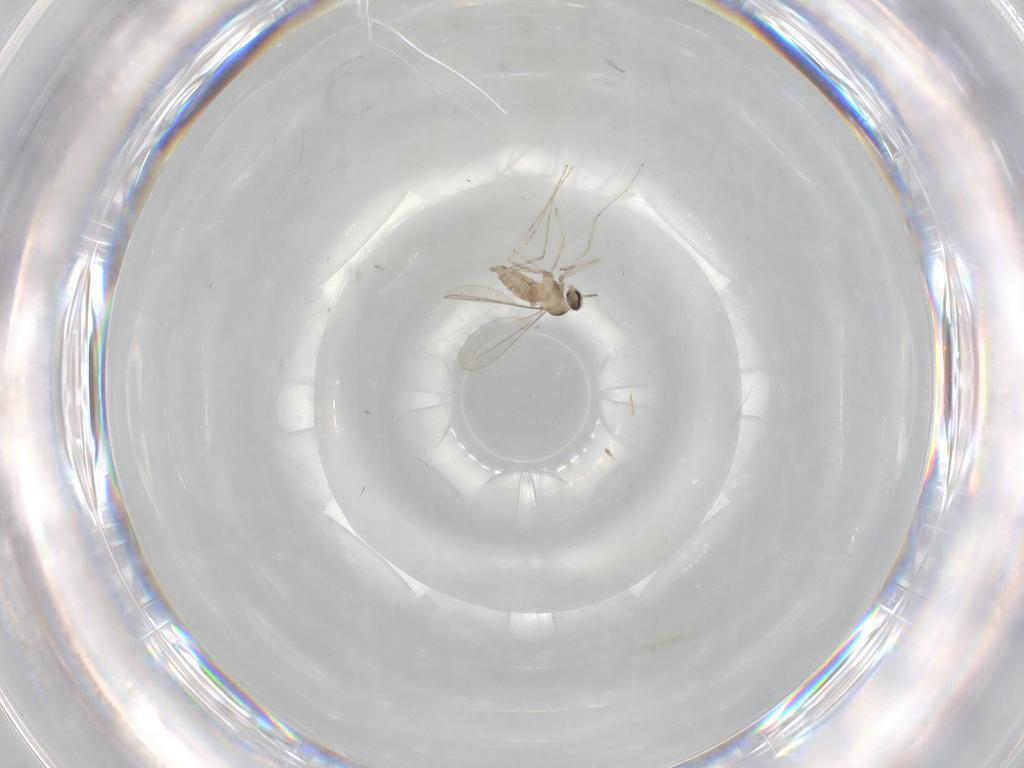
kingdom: Animalia
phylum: Arthropoda
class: Insecta
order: Diptera
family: Cecidomyiidae
